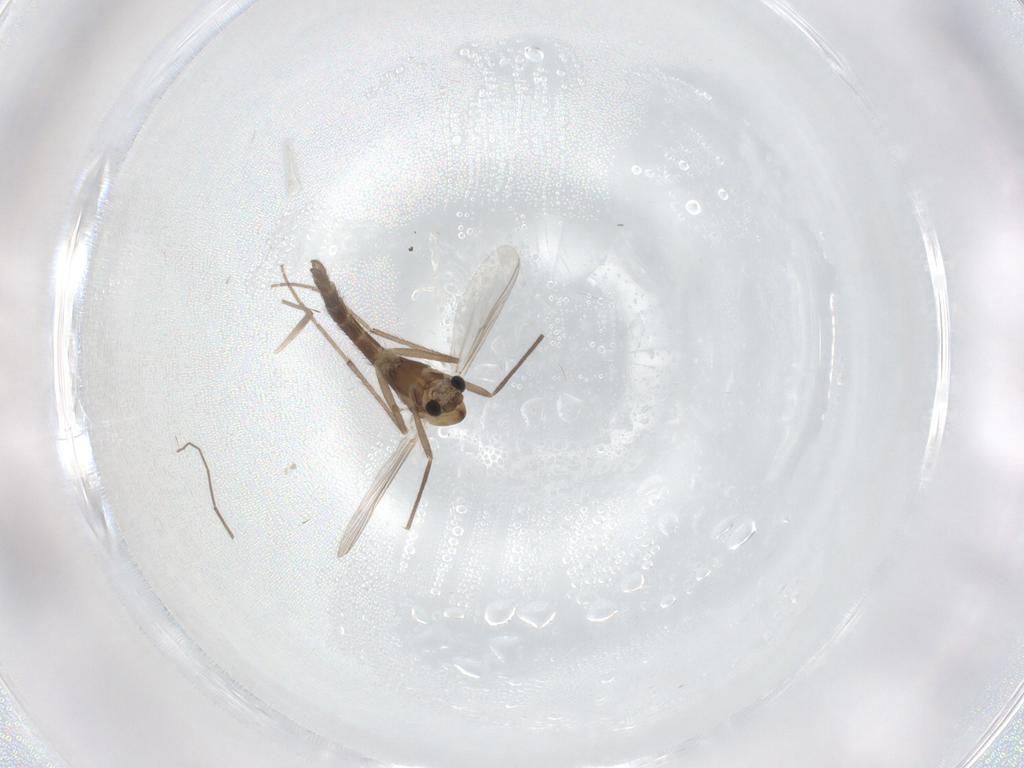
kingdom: Animalia
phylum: Arthropoda
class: Insecta
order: Diptera
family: Chironomidae
